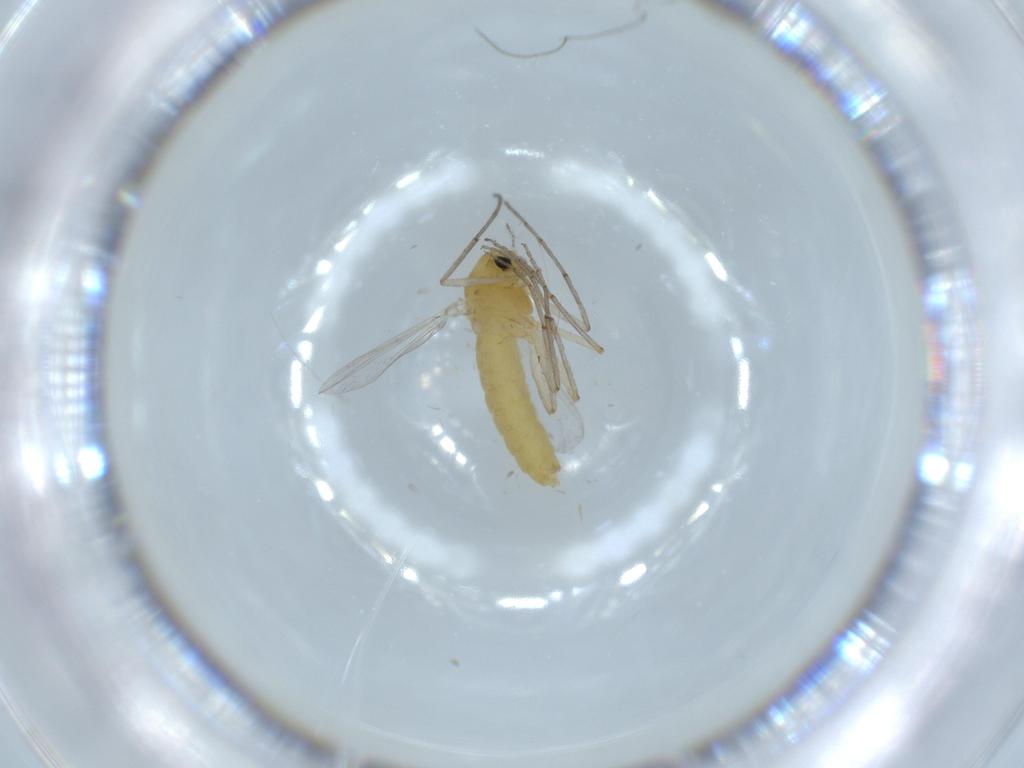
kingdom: Animalia
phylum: Arthropoda
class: Insecta
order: Diptera
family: Chironomidae
